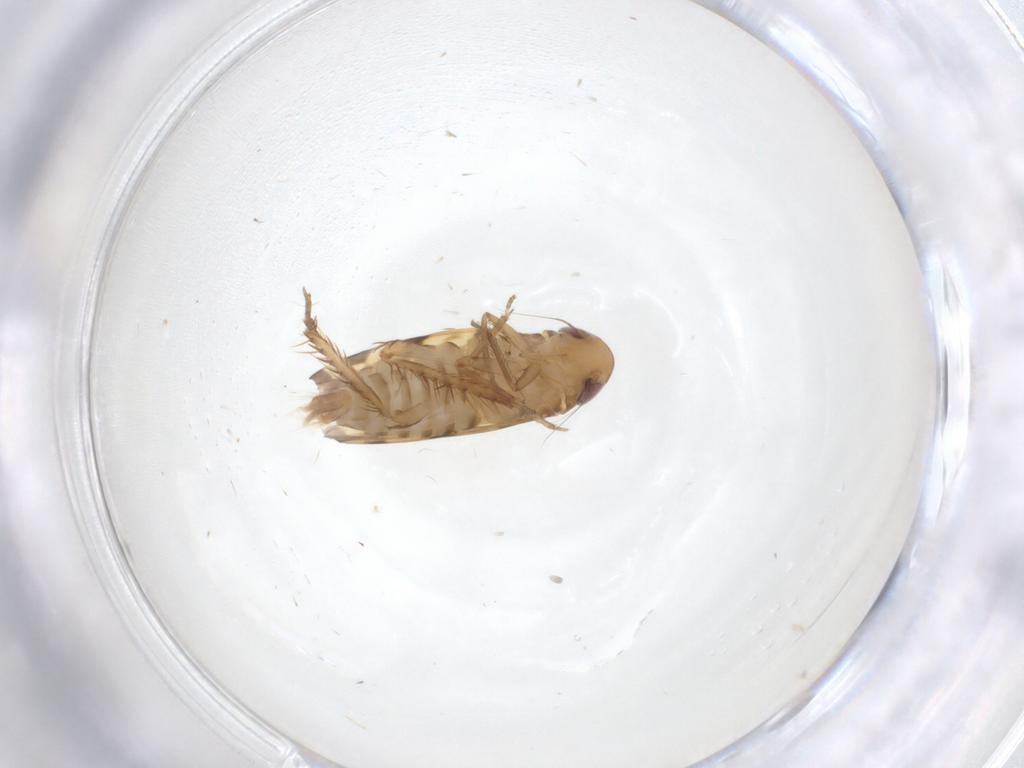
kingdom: Animalia
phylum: Arthropoda
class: Insecta
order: Hemiptera
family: Cicadellidae
